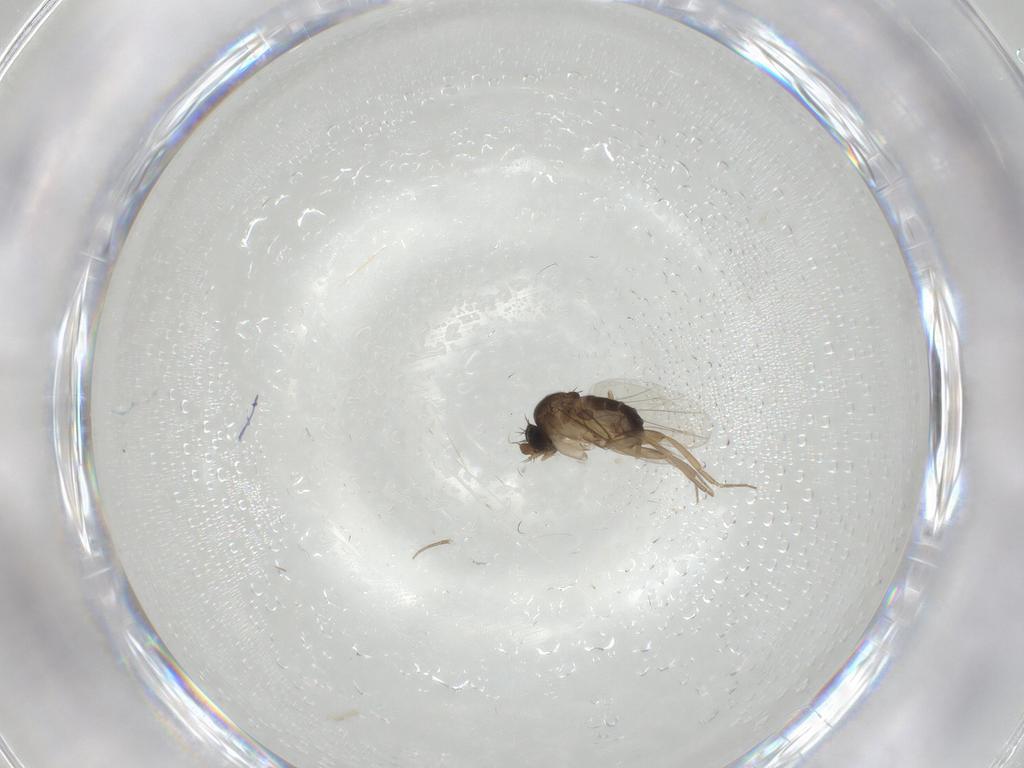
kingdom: Animalia
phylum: Arthropoda
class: Insecta
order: Diptera
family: Phoridae
